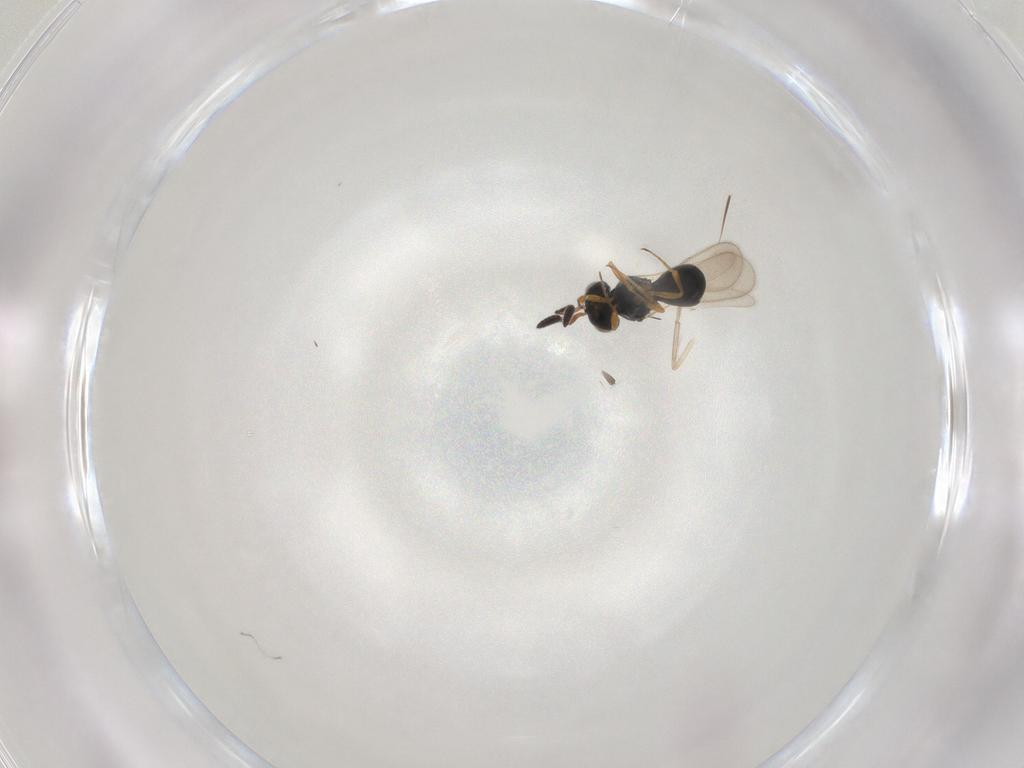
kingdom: Animalia
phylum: Arthropoda
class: Insecta
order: Hymenoptera
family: Scelionidae
